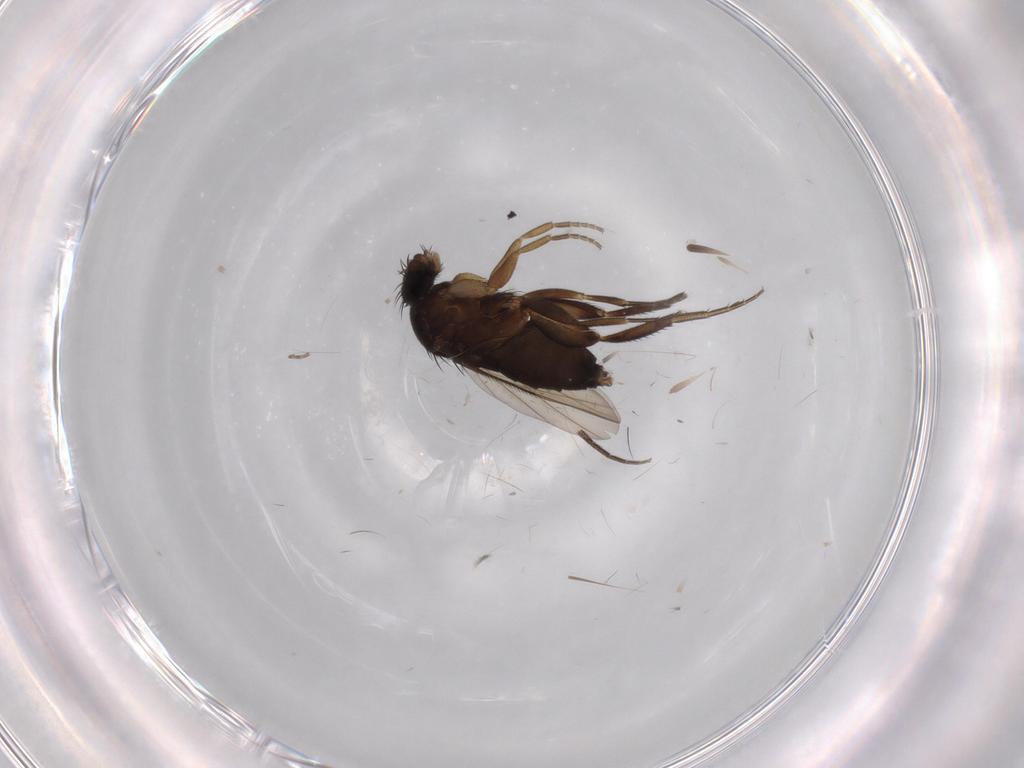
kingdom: Animalia
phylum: Arthropoda
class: Insecta
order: Diptera
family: Phoridae
